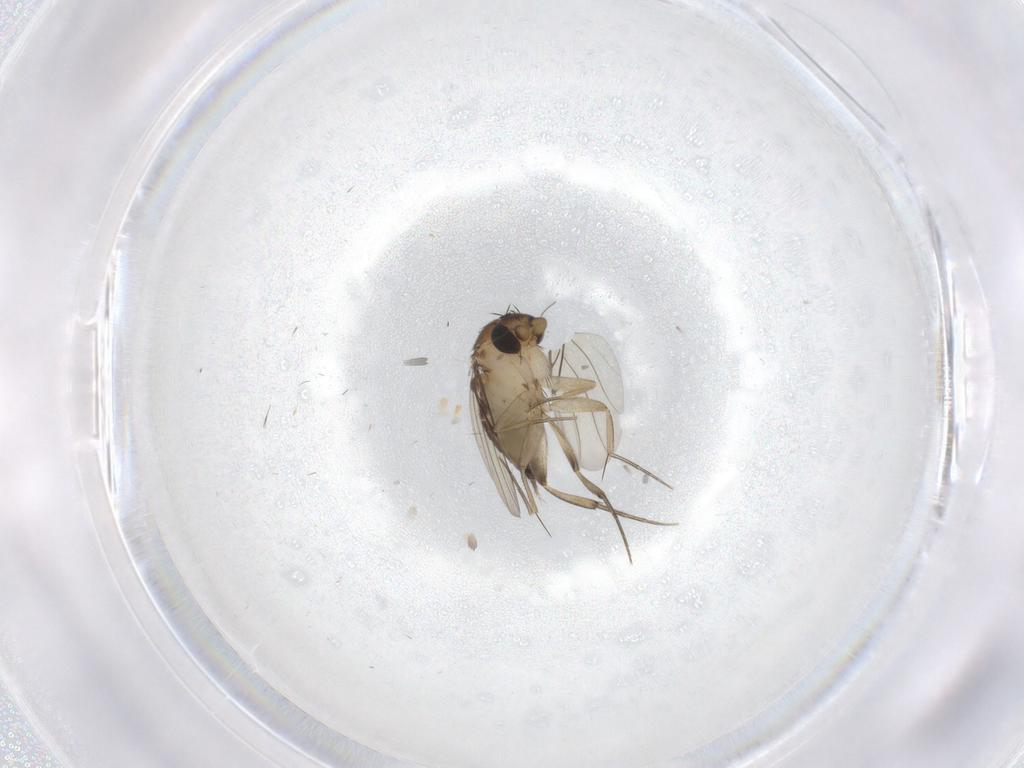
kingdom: Animalia
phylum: Arthropoda
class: Insecta
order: Diptera
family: Phoridae
